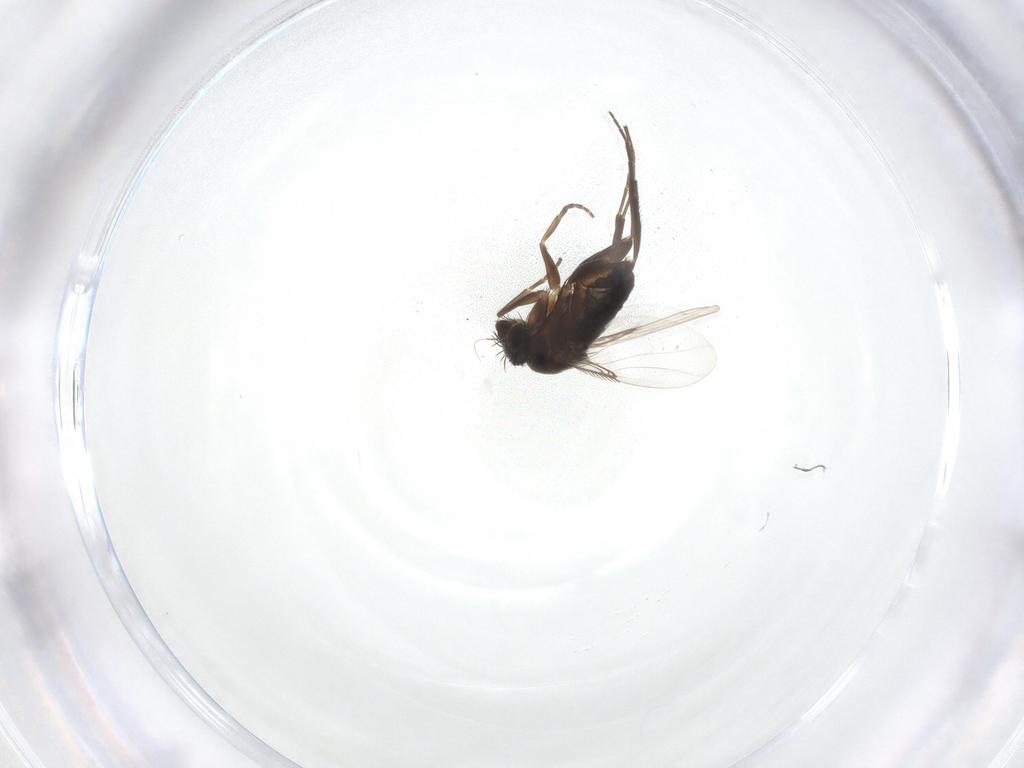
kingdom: Animalia
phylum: Arthropoda
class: Insecta
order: Diptera
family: Phoridae
